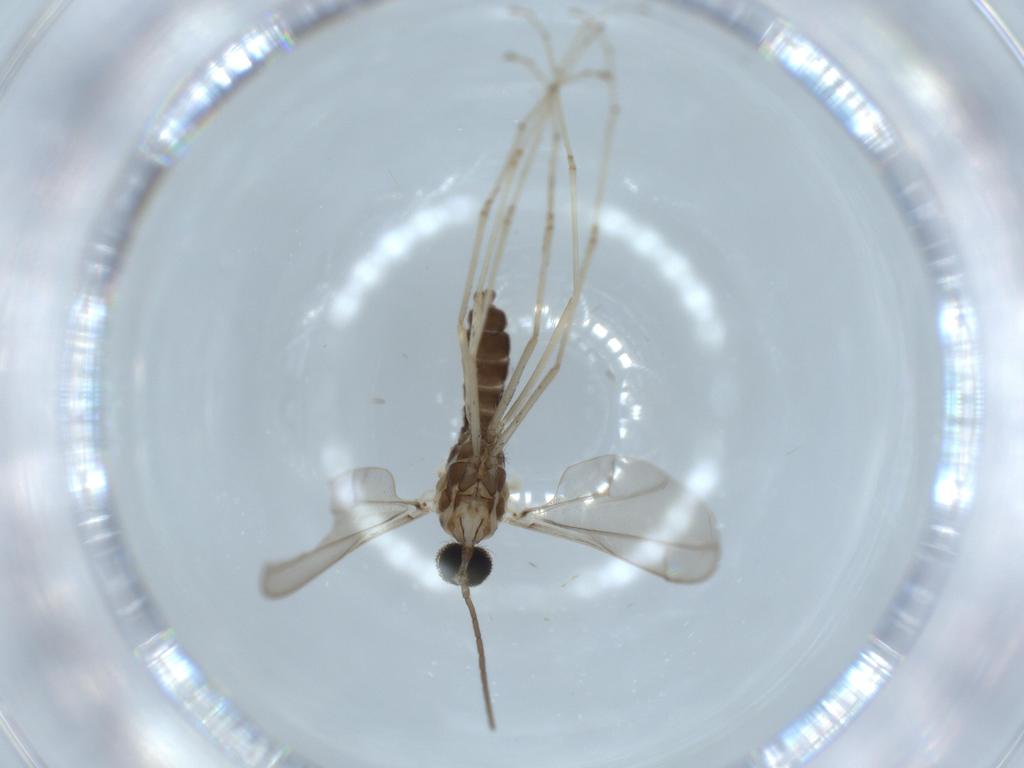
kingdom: Animalia
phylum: Arthropoda
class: Insecta
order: Diptera
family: Cecidomyiidae
